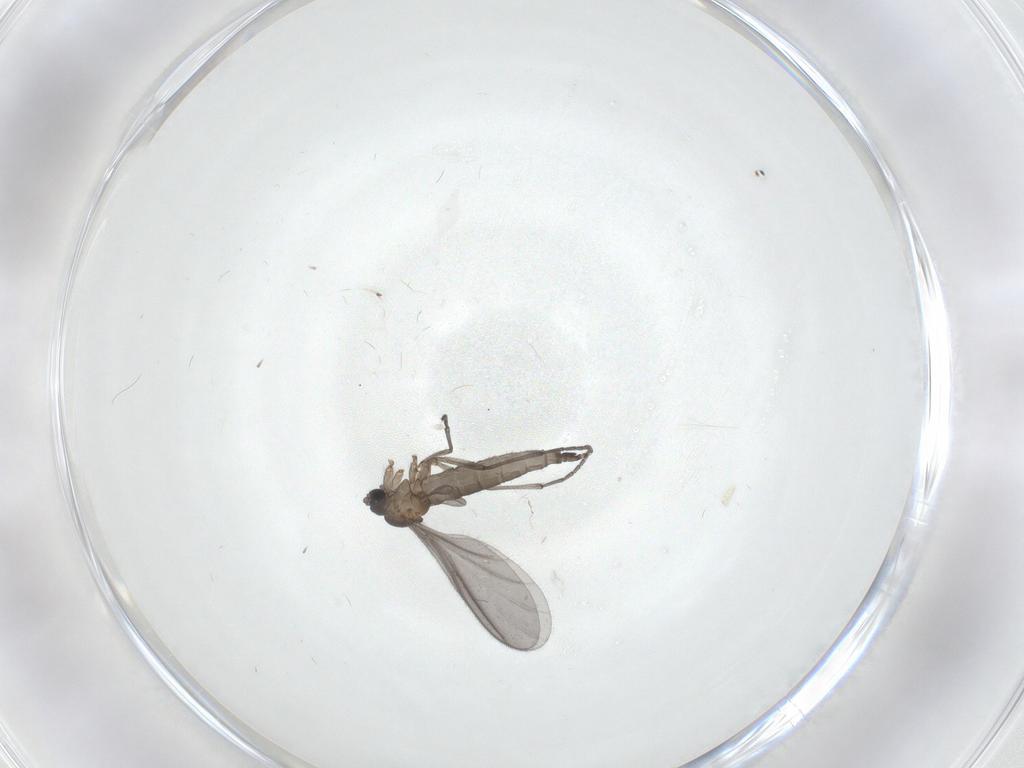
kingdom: Animalia
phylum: Arthropoda
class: Insecta
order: Diptera
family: Sciaridae
